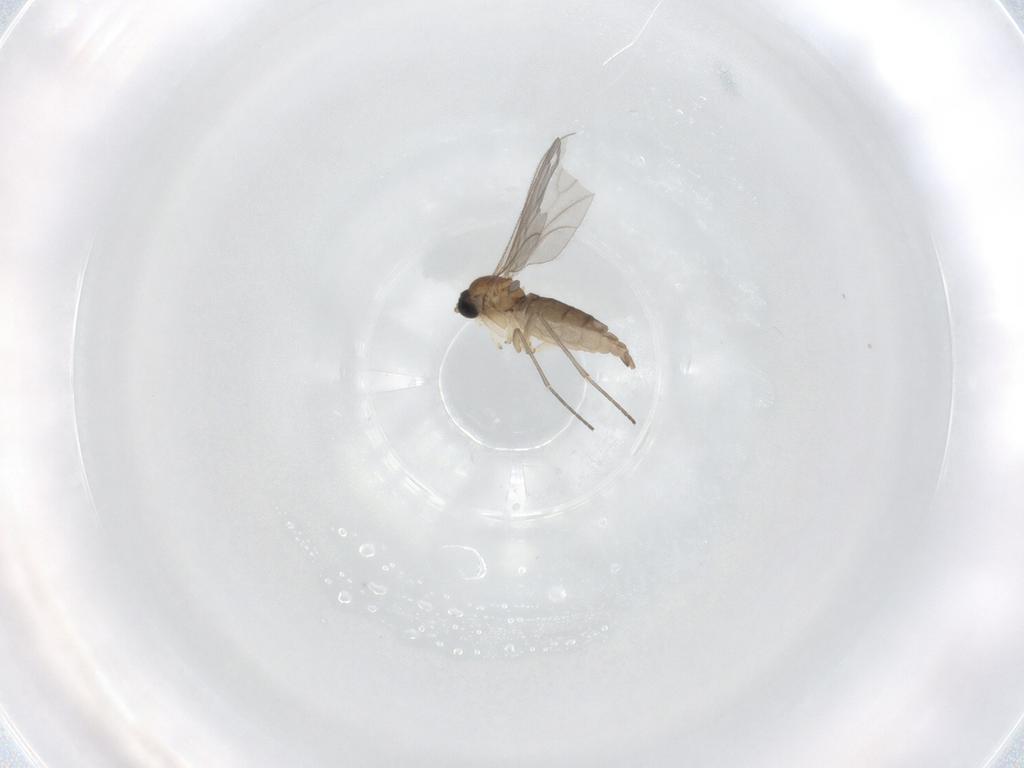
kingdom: Animalia
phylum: Arthropoda
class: Insecta
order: Diptera
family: Sciaridae
